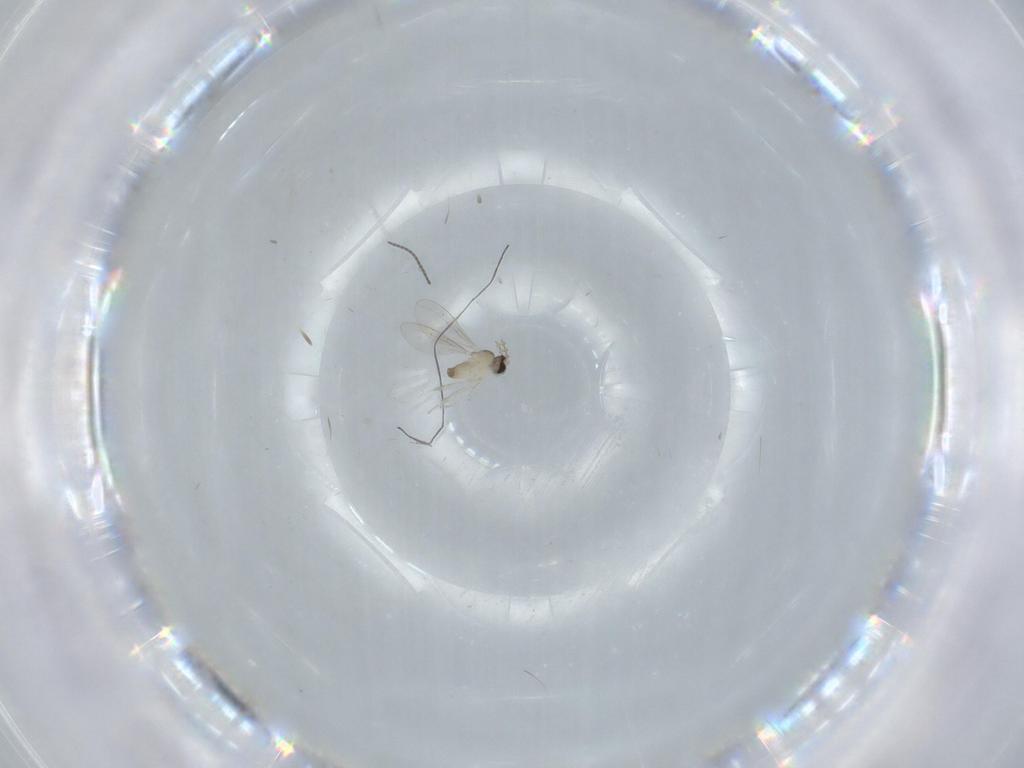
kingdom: Animalia
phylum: Arthropoda
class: Insecta
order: Diptera
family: Cecidomyiidae
